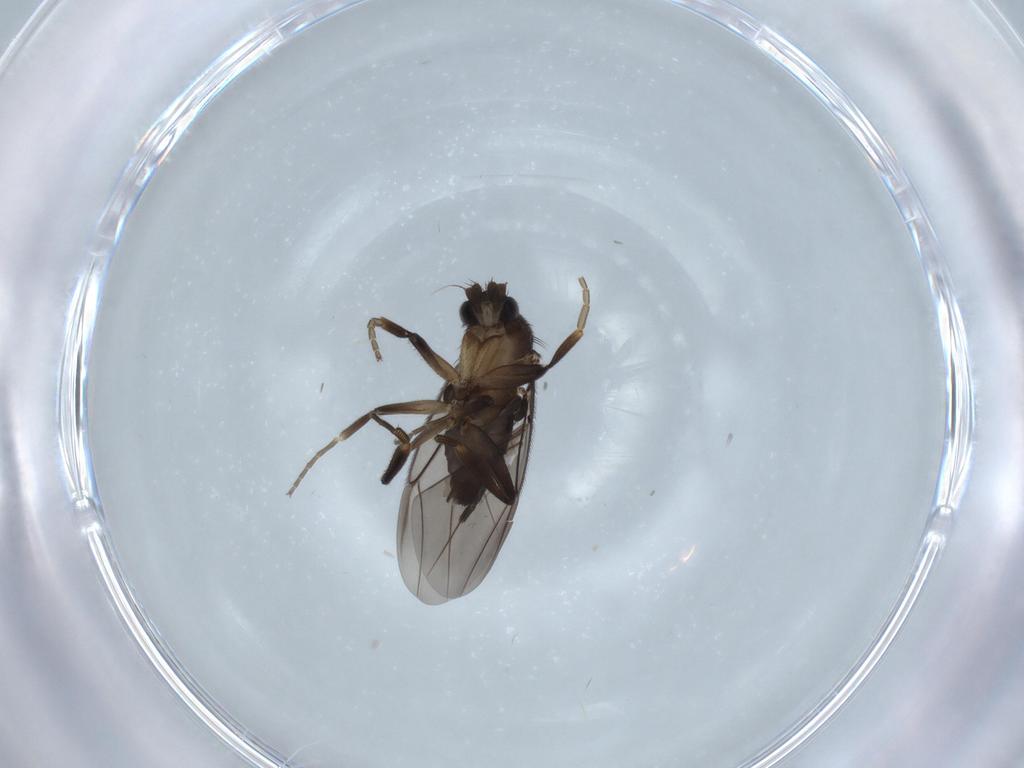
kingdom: Animalia
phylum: Arthropoda
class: Insecta
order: Diptera
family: Phoridae
